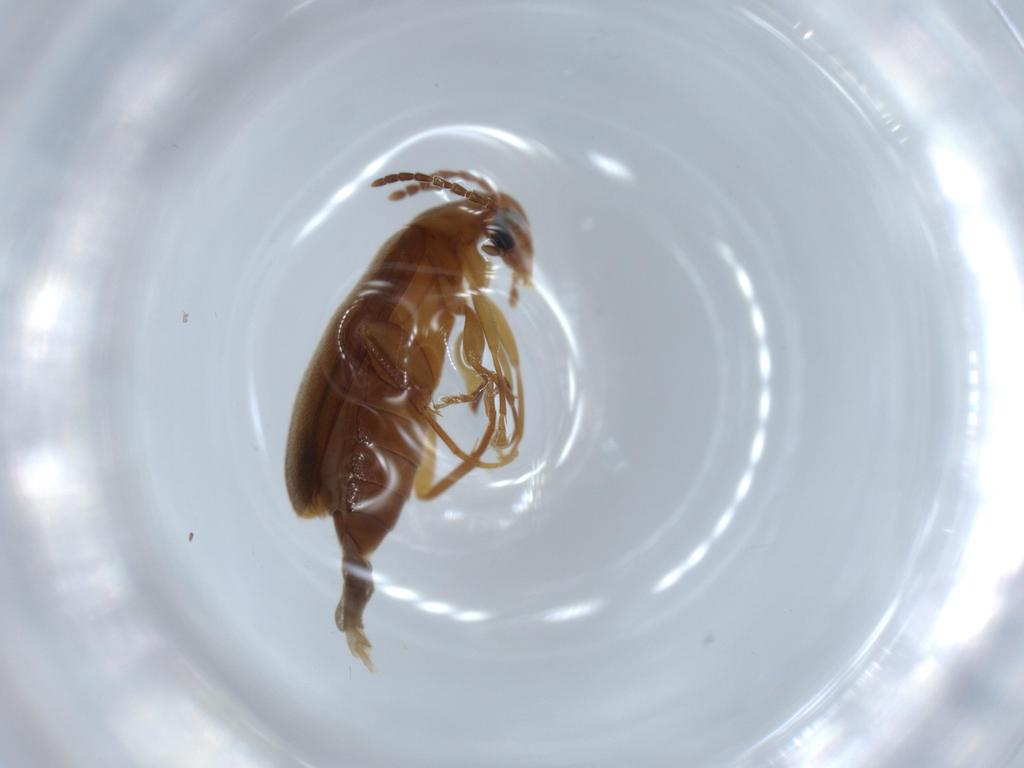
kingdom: Animalia
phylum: Arthropoda
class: Insecta
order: Coleoptera
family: Scraptiidae
